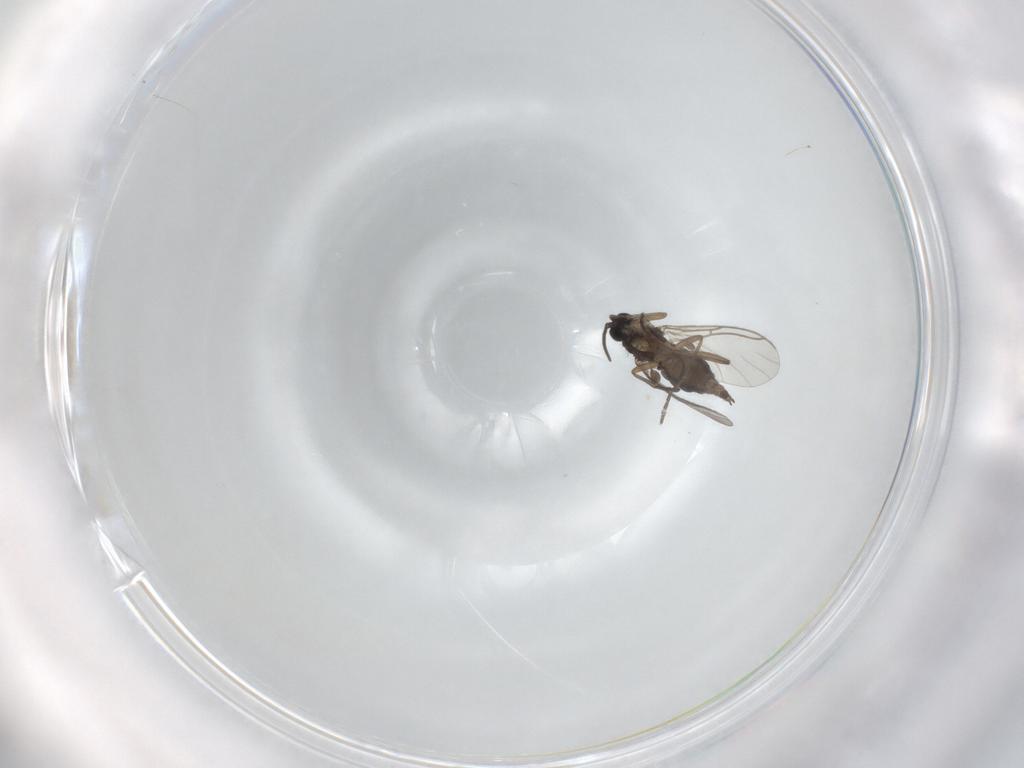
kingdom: Animalia
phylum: Arthropoda
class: Insecta
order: Diptera
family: Sciaridae
